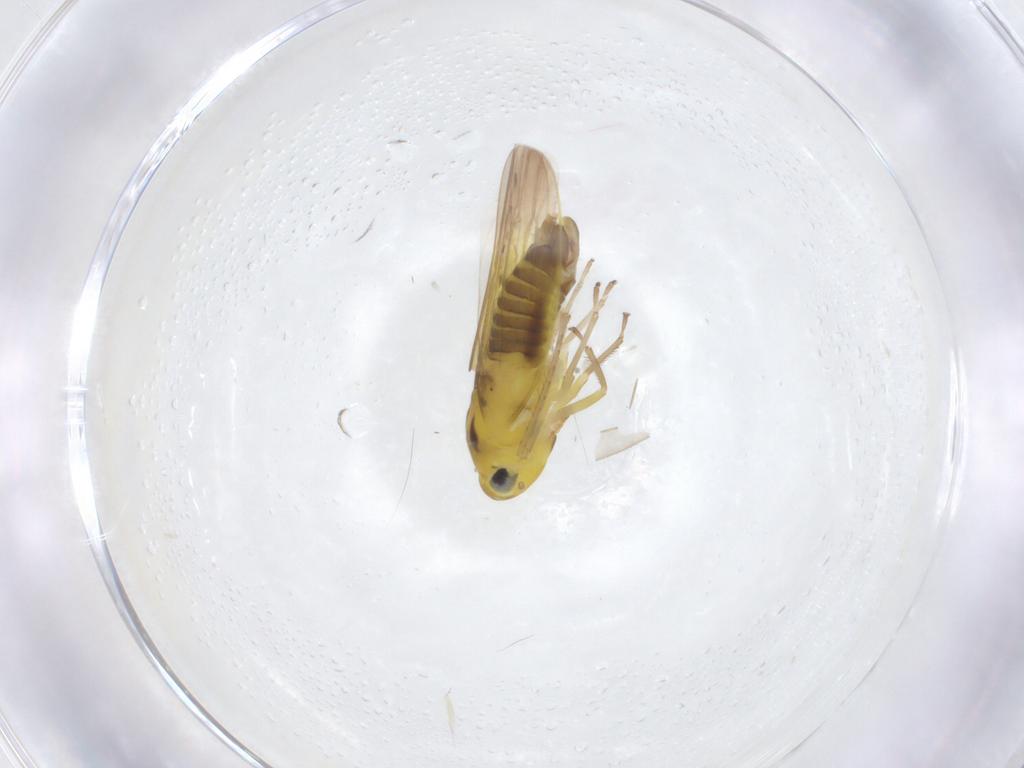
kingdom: Animalia
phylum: Arthropoda
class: Insecta
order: Hemiptera
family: Cicadellidae
